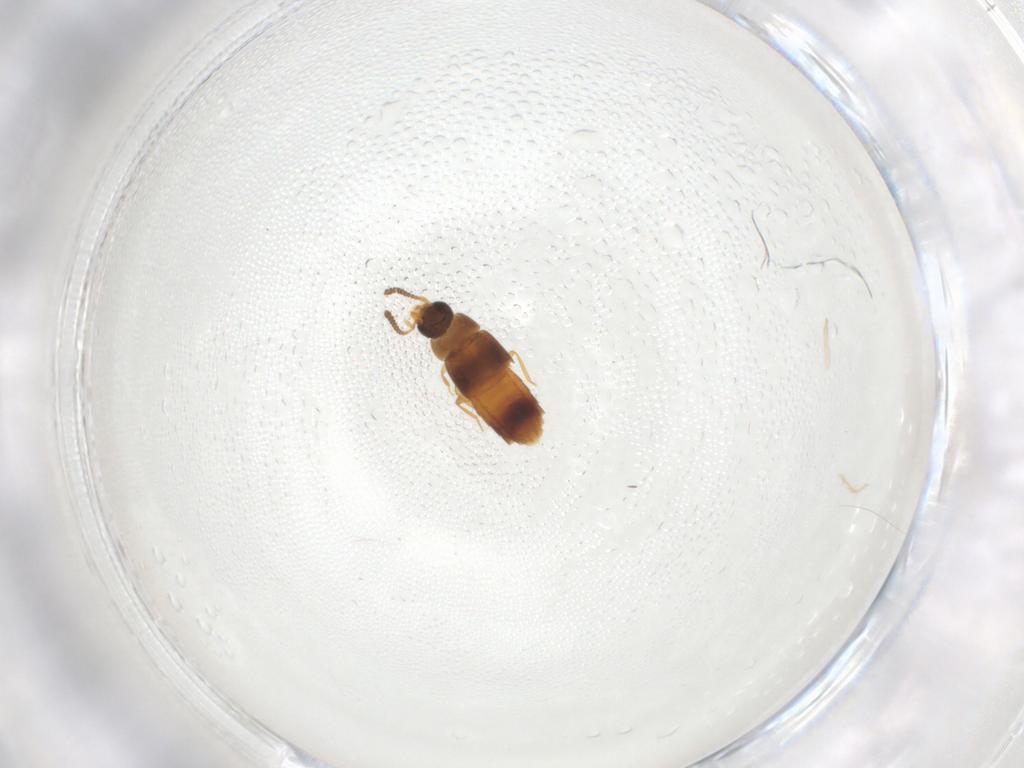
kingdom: Animalia
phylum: Arthropoda
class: Insecta
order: Coleoptera
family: Staphylinidae
